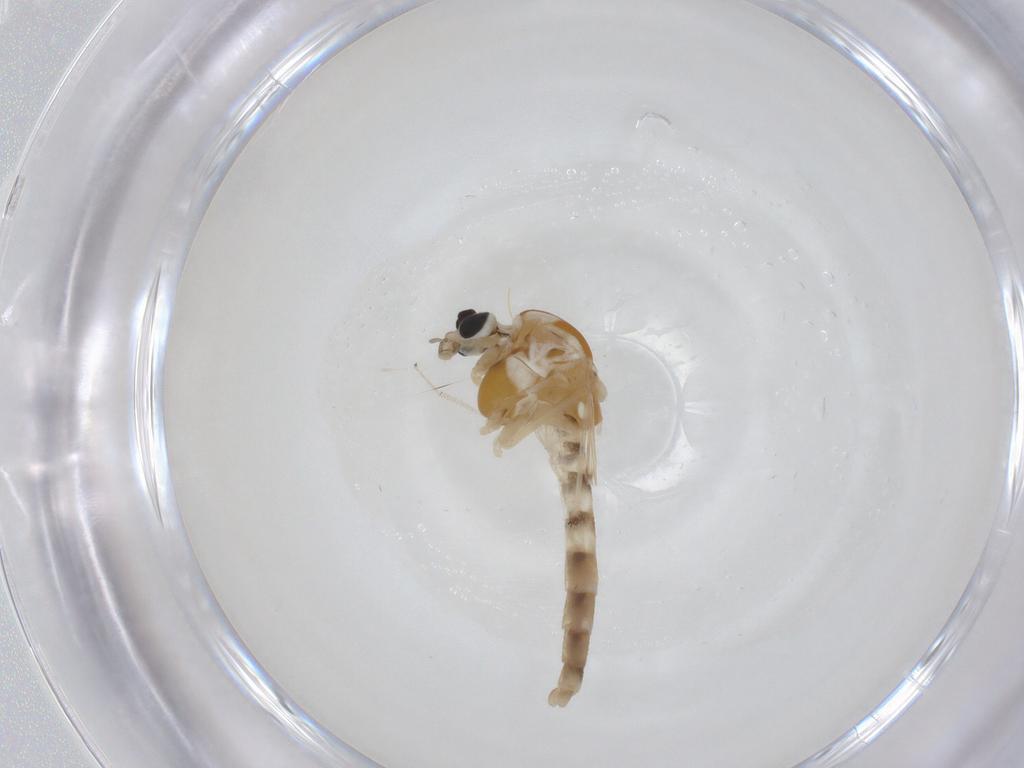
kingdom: Animalia
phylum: Arthropoda
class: Insecta
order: Diptera
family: Chironomidae
